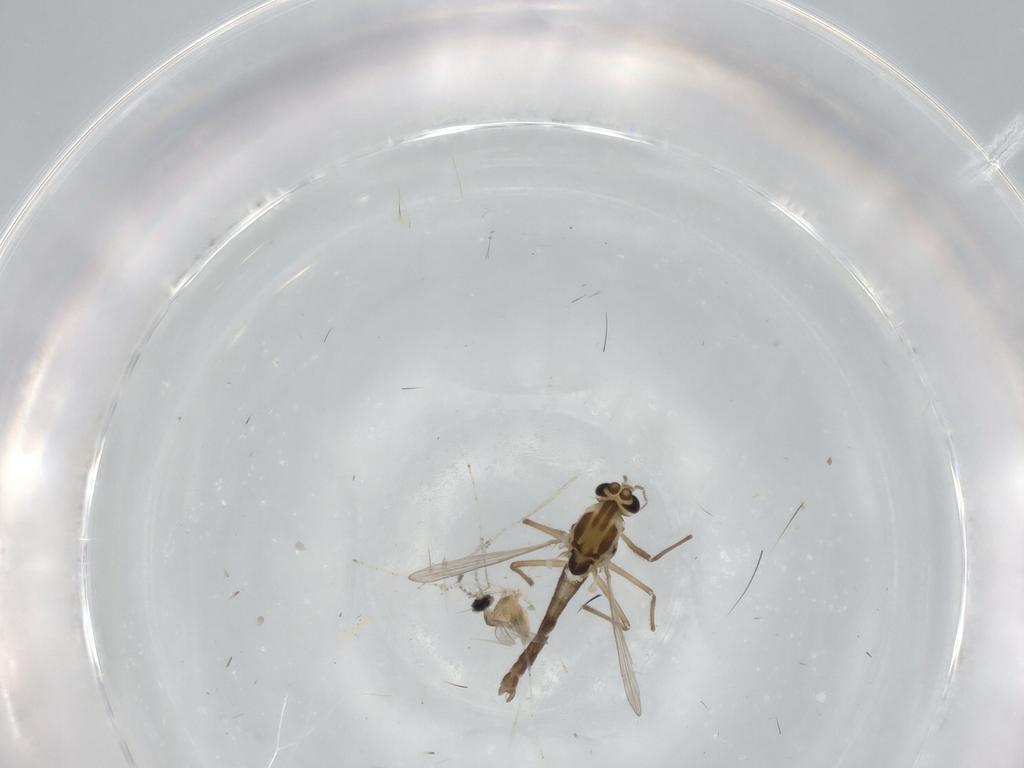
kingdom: Animalia
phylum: Arthropoda
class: Insecta
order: Diptera
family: Cecidomyiidae
